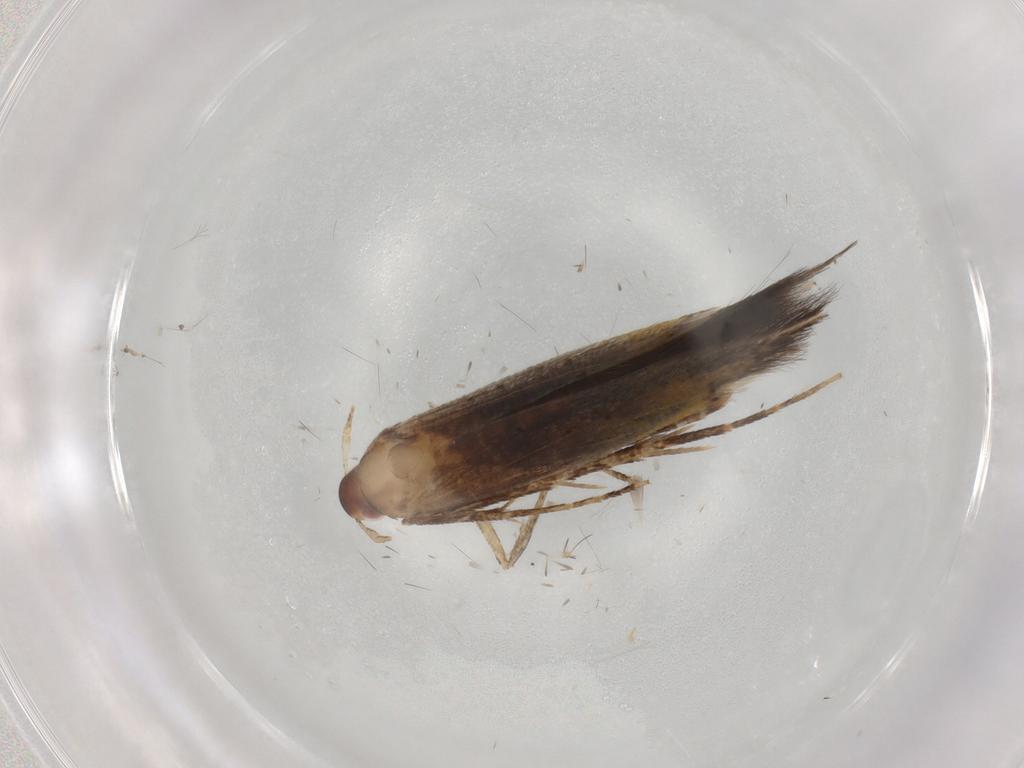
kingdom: Animalia
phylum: Arthropoda
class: Insecta
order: Lepidoptera
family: Cosmopterigidae
